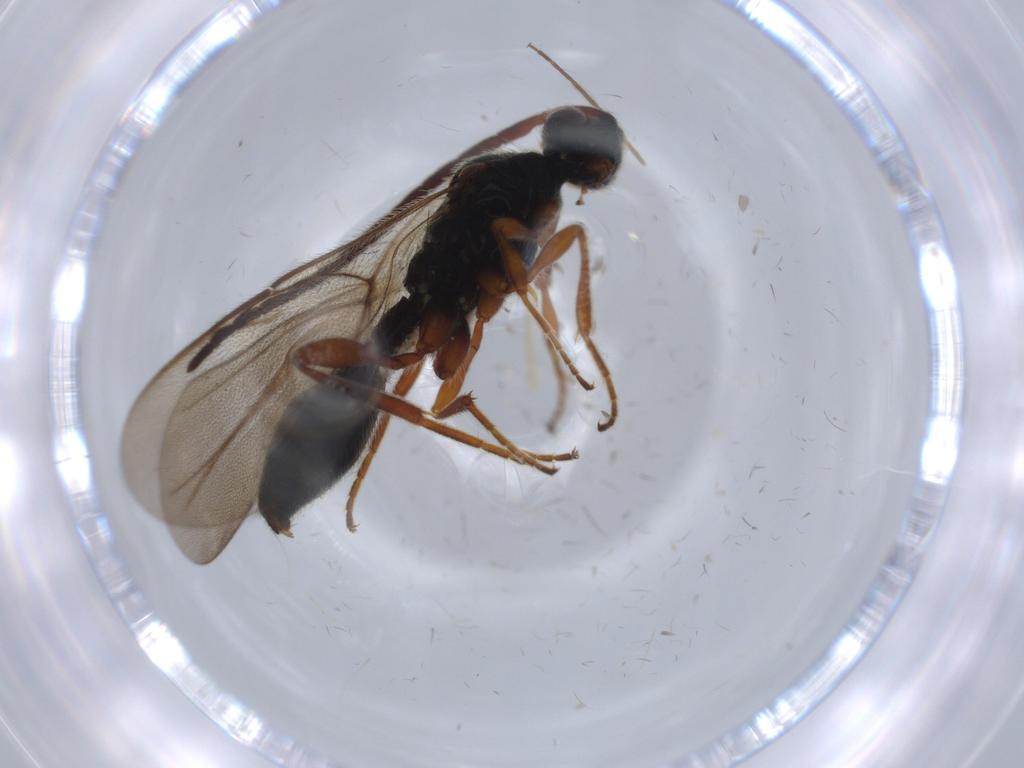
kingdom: Animalia
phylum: Arthropoda
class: Insecta
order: Hymenoptera
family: Eulophidae
